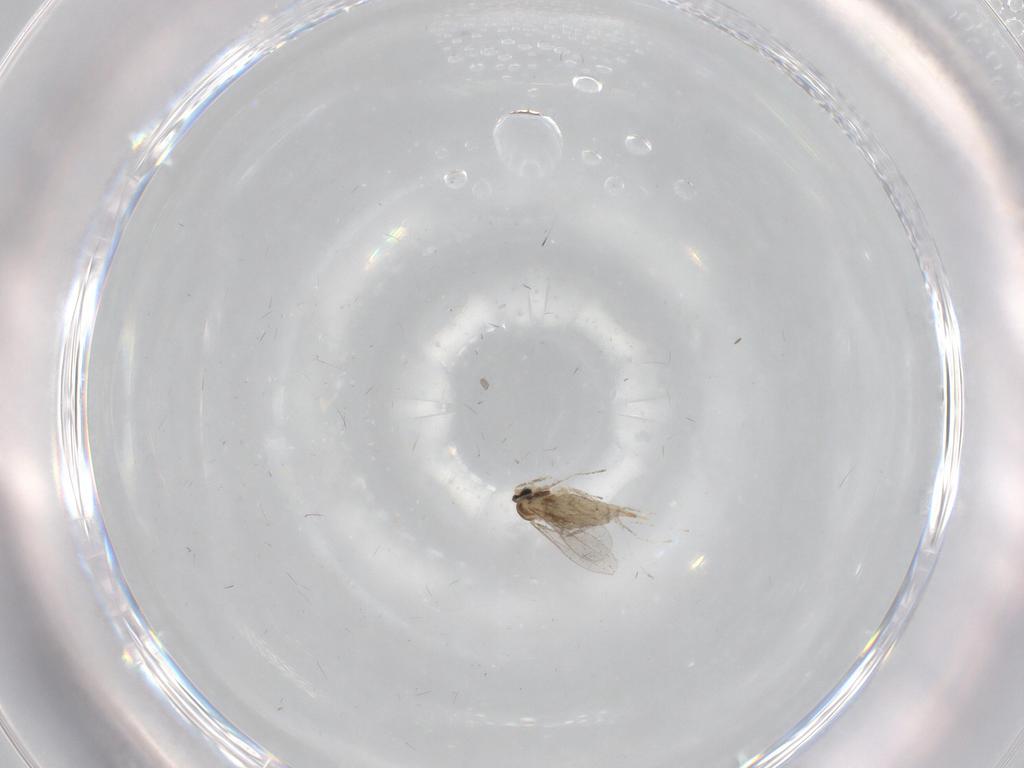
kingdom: Animalia
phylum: Arthropoda
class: Insecta
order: Diptera
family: Cecidomyiidae
